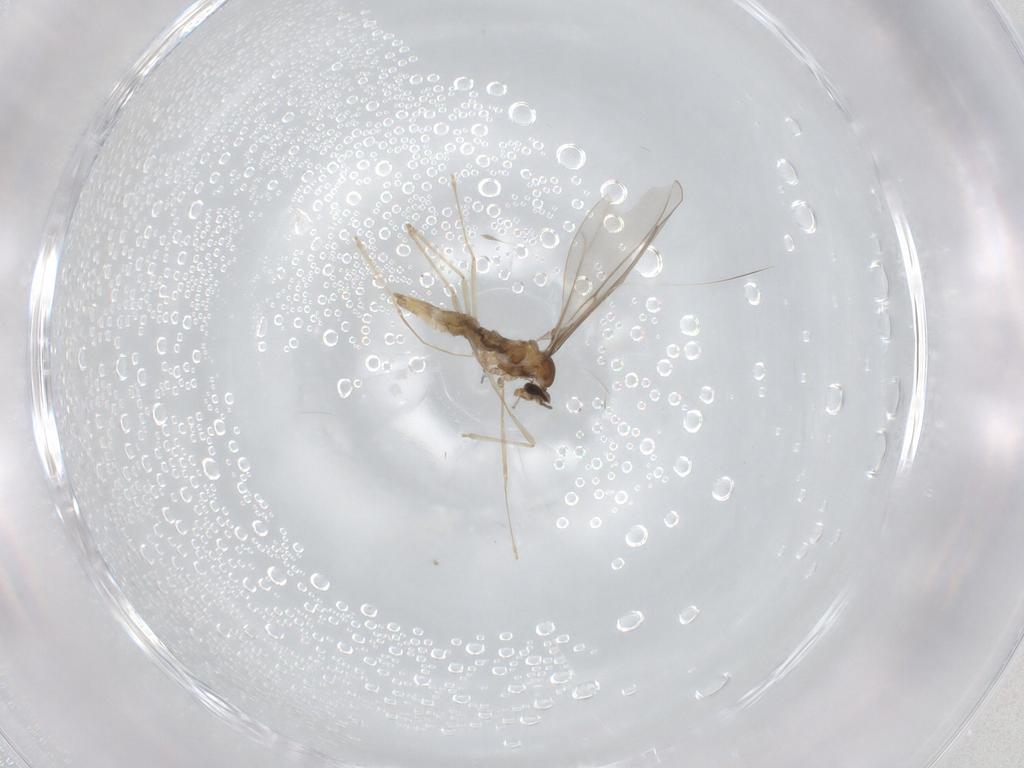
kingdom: Animalia
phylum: Arthropoda
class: Insecta
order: Diptera
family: Cecidomyiidae
